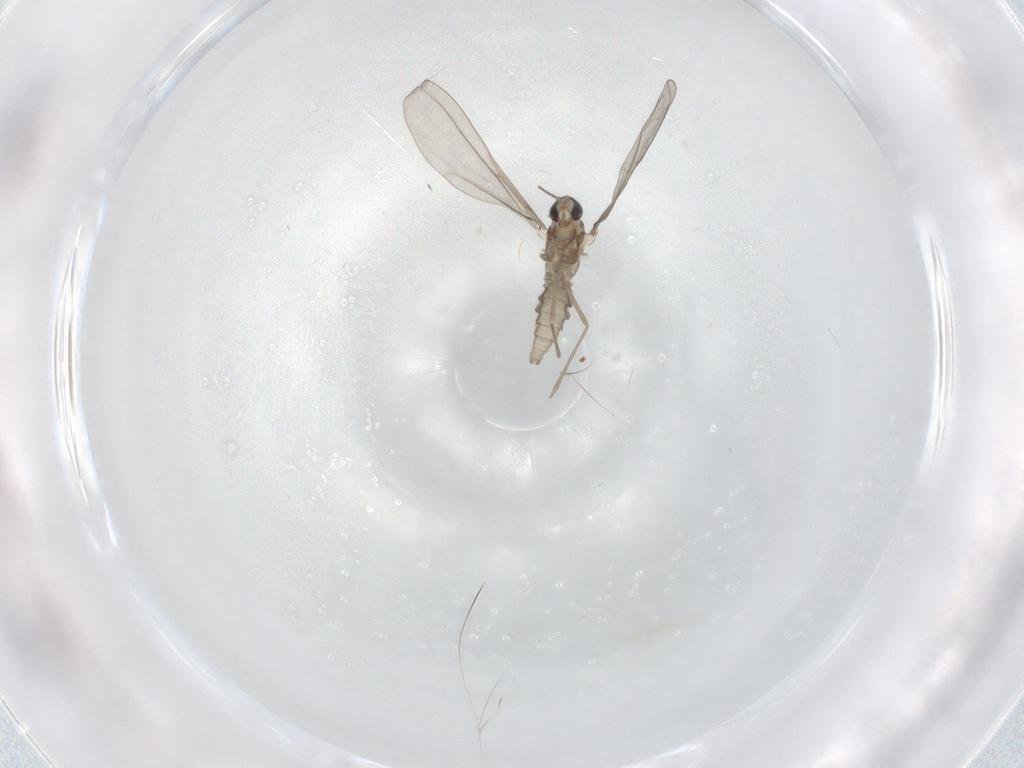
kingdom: Animalia
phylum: Arthropoda
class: Insecta
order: Diptera
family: Cecidomyiidae
